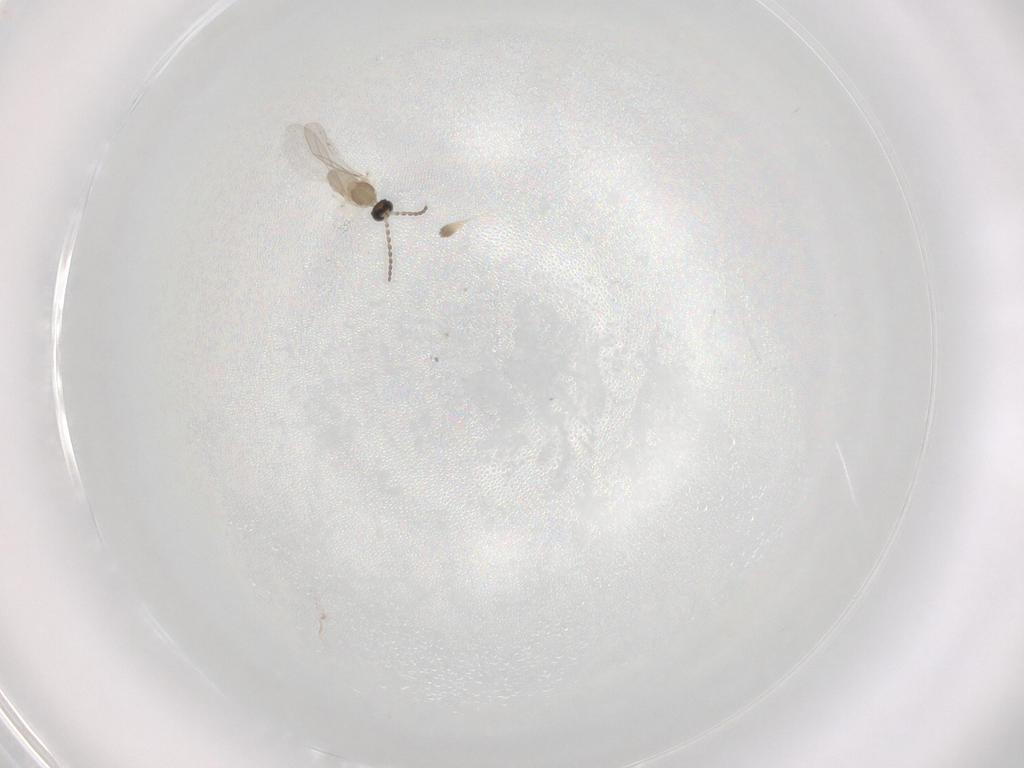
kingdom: Animalia
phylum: Arthropoda
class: Insecta
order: Diptera
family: Cecidomyiidae
